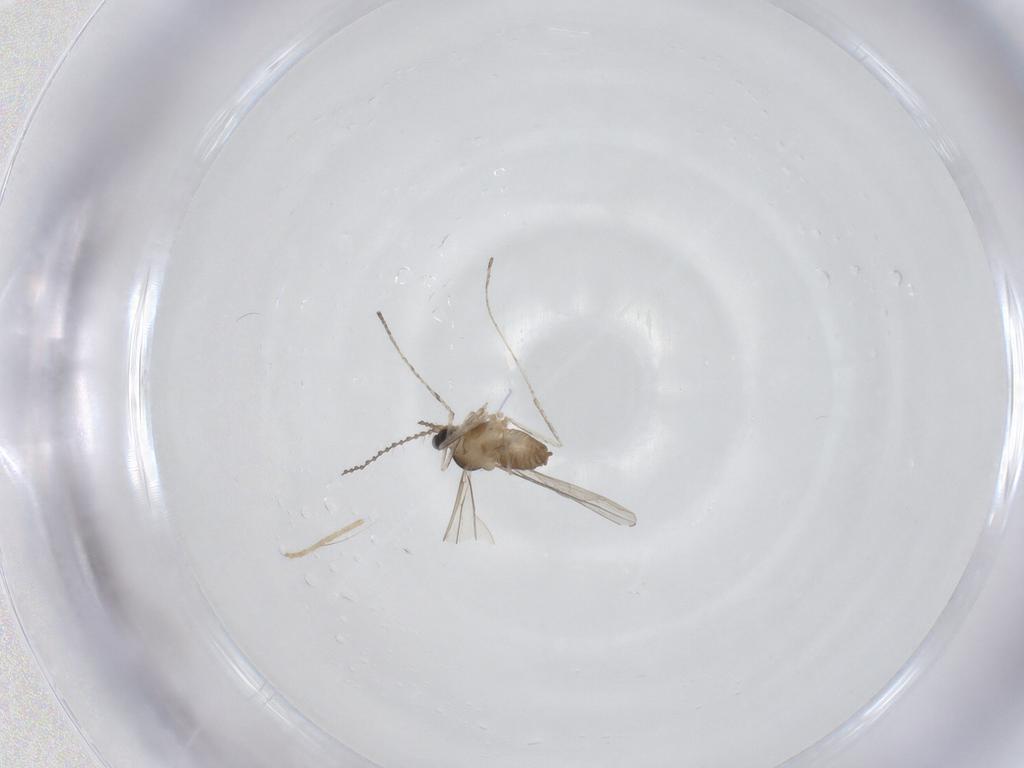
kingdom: Animalia
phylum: Arthropoda
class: Insecta
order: Diptera
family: Chironomidae
